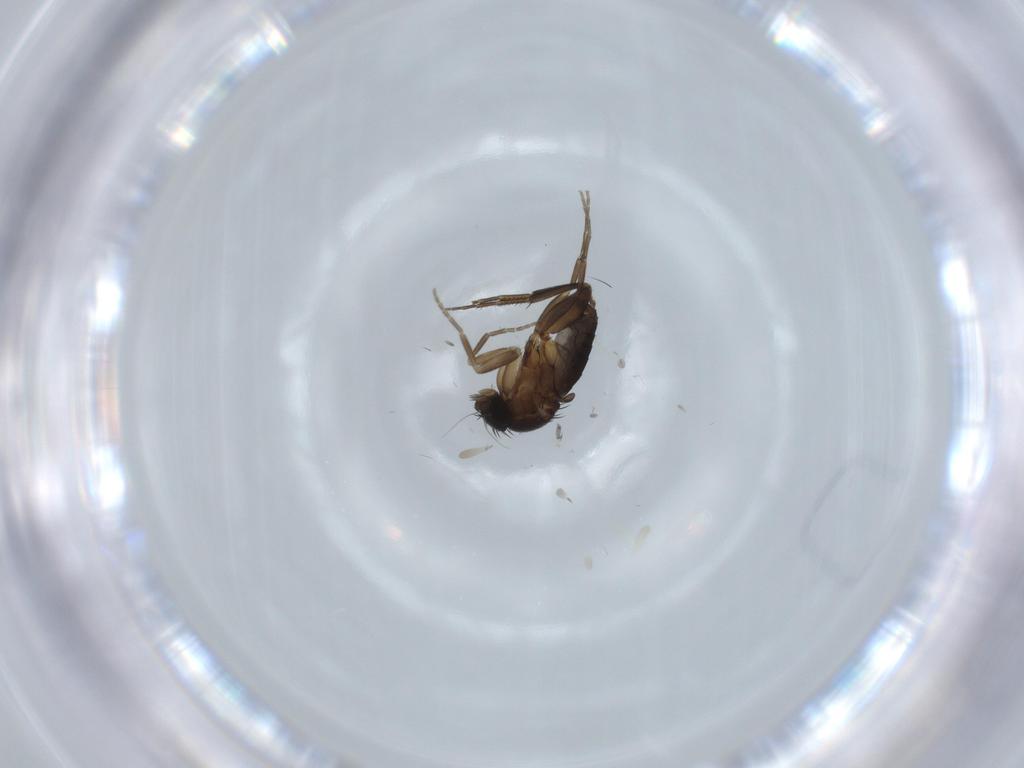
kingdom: Animalia
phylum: Arthropoda
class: Insecta
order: Diptera
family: Phoridae
